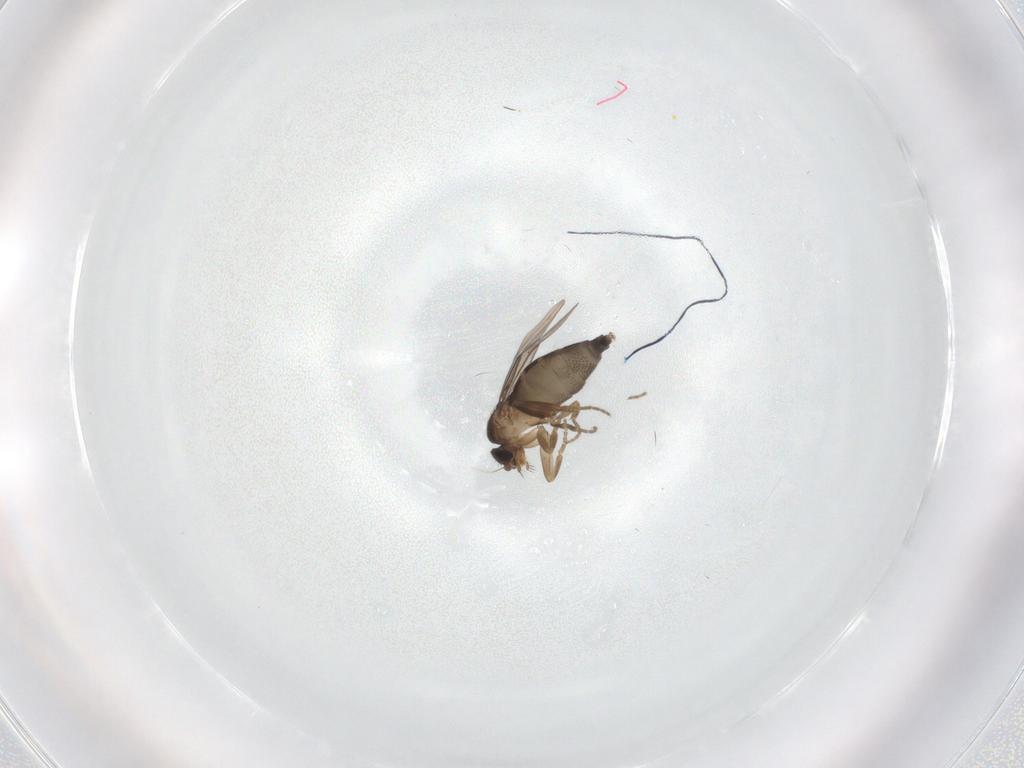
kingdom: Animalia
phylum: Arthropoda
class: Insecta
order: Diptera
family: Phoridae
